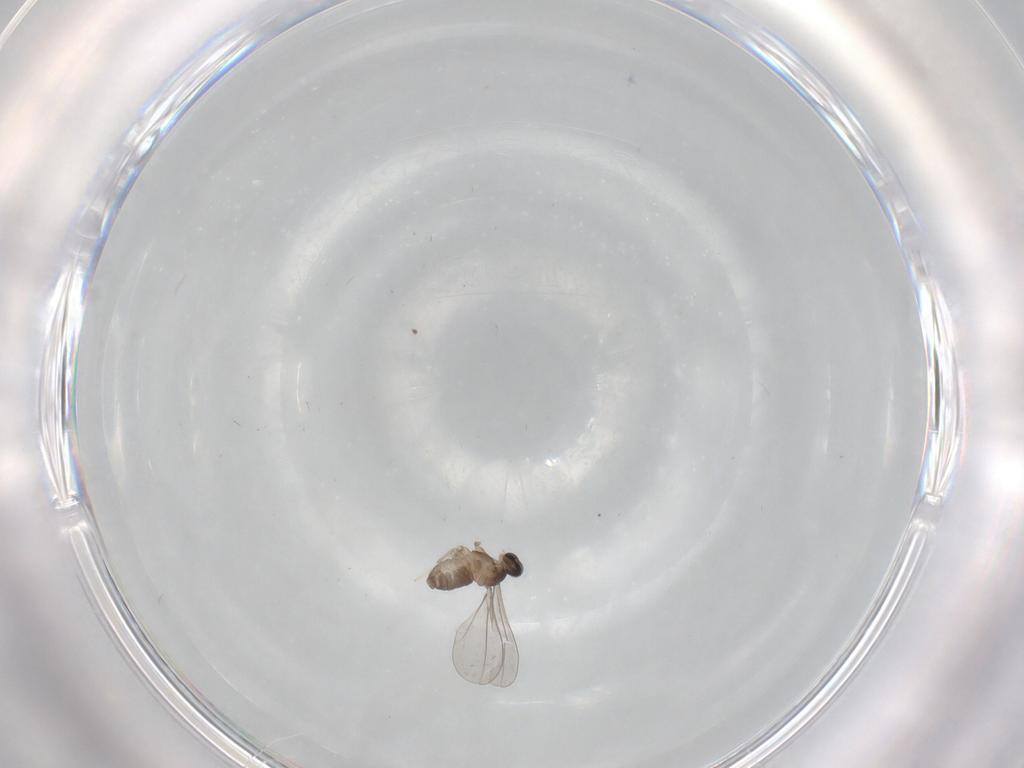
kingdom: Animalia
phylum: Arthropoda
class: Insecta
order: Diptera
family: Cecidomyiidae
